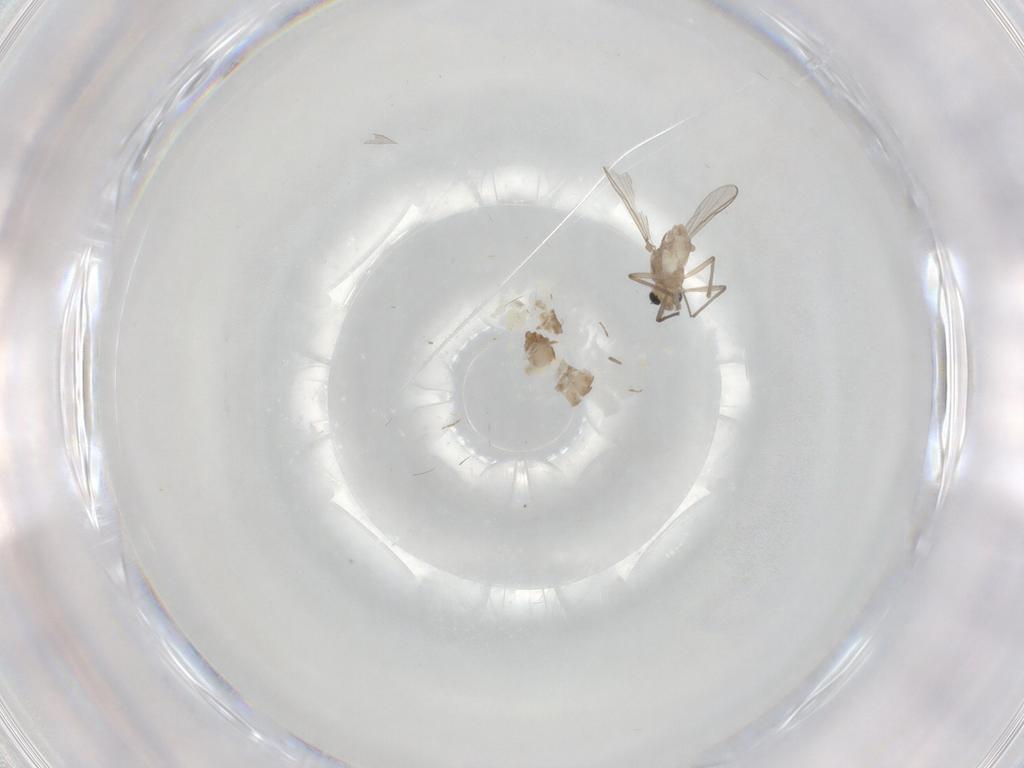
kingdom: Animalia
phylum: Arthropoda
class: Insecta
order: Diptera
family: Chironomidae
